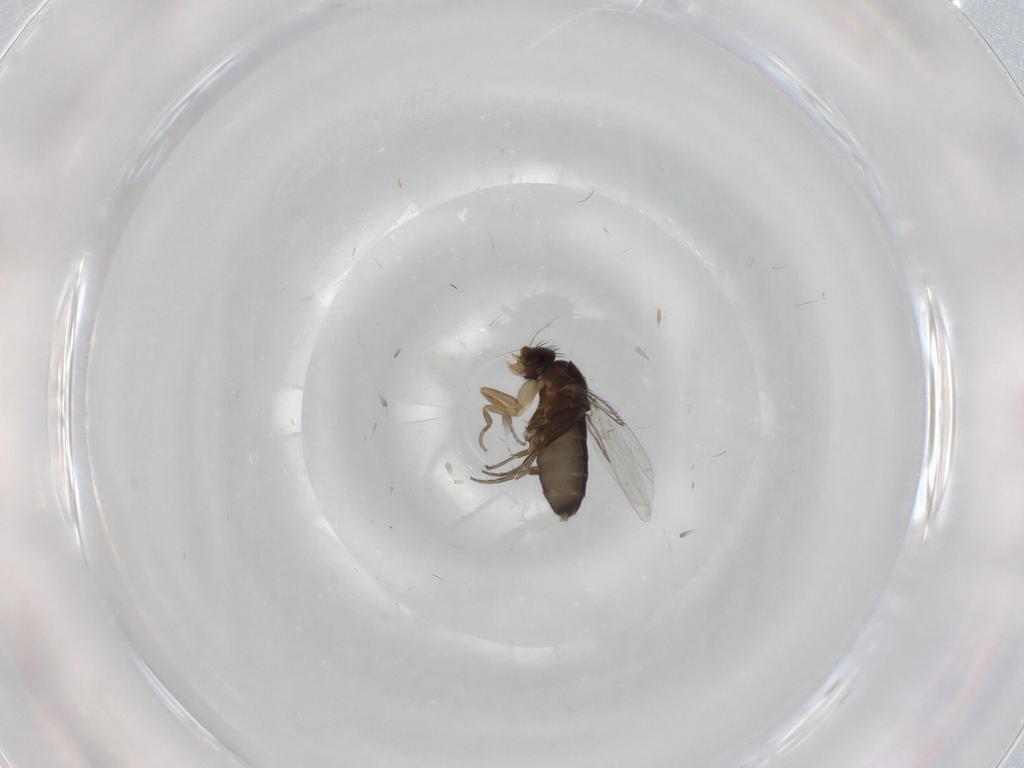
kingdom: Animalia
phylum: Arthropoda
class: Insecta
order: Diptera
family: Phoridae
